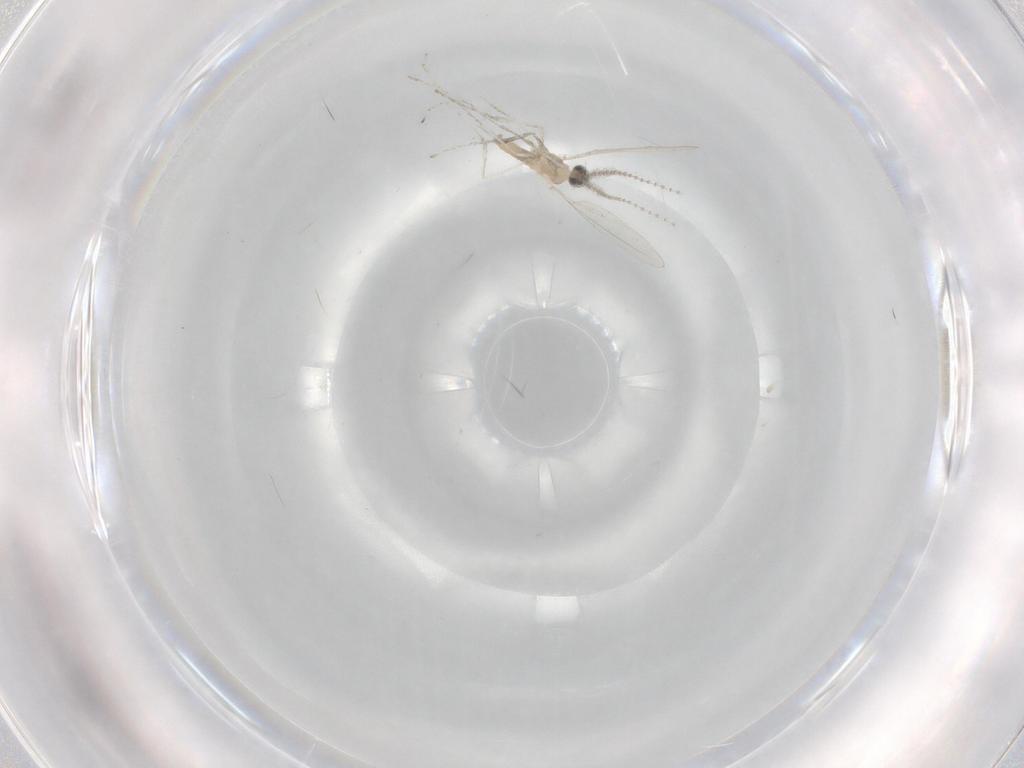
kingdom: Animalia
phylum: Arthropoda
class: Insecta
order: Diptera
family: Cecidomyiidae
